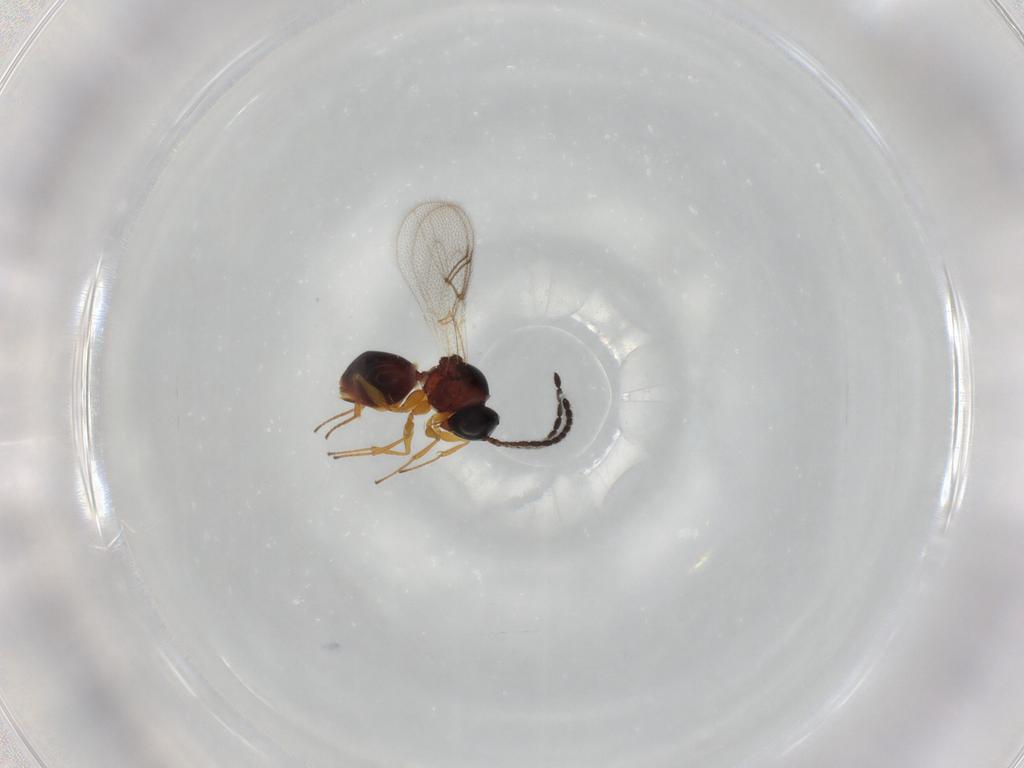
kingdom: Animalia
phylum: Arthropoda
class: Insecta
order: Hymenoptera
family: Figitidae
